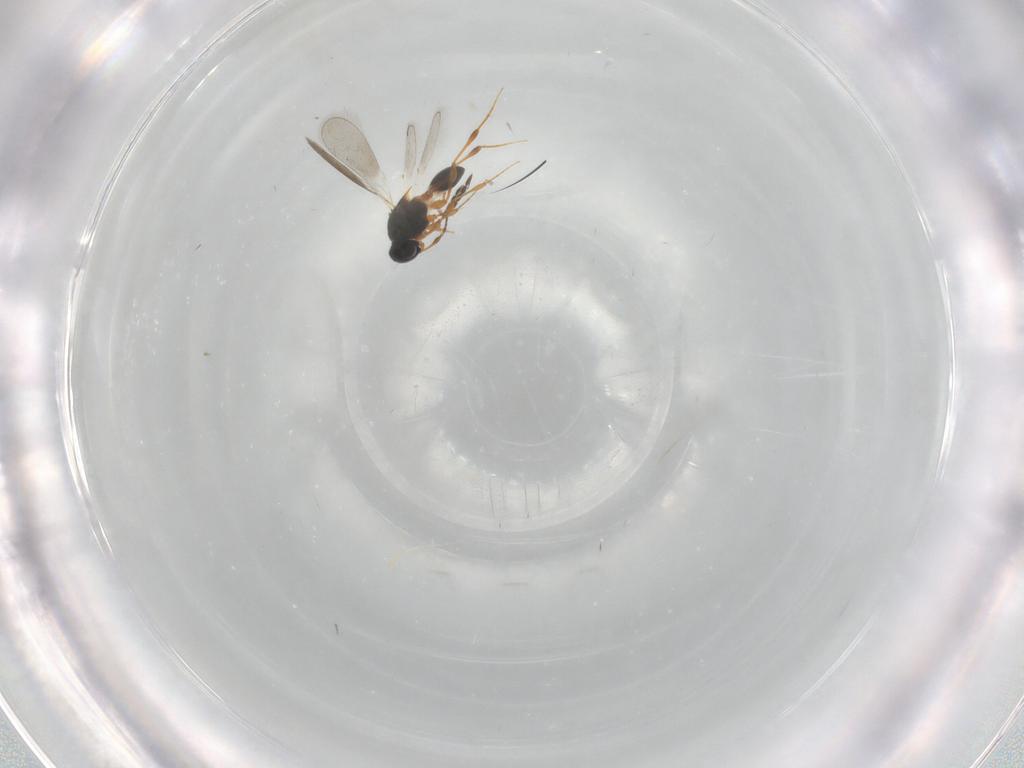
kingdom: Animalia
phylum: Arthropoda
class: Insecta
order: Hymenoptera
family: Platygastridae
